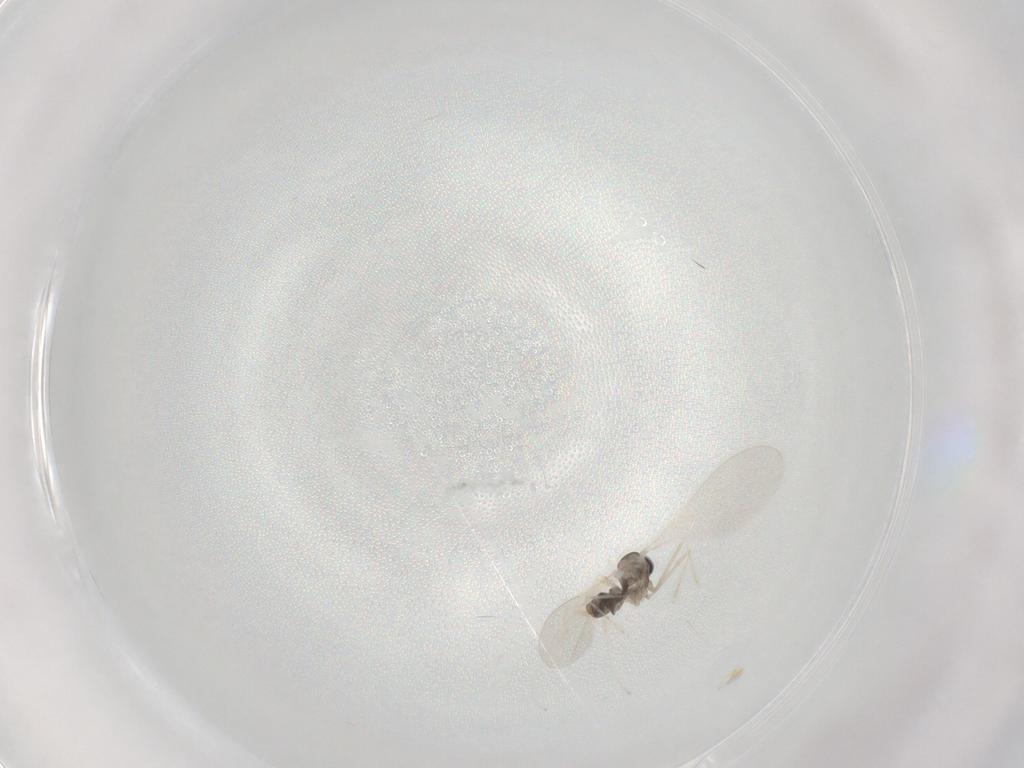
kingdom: Animalia
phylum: Arthropoda
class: Insecta
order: Diptera
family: Cecidomyiidae
